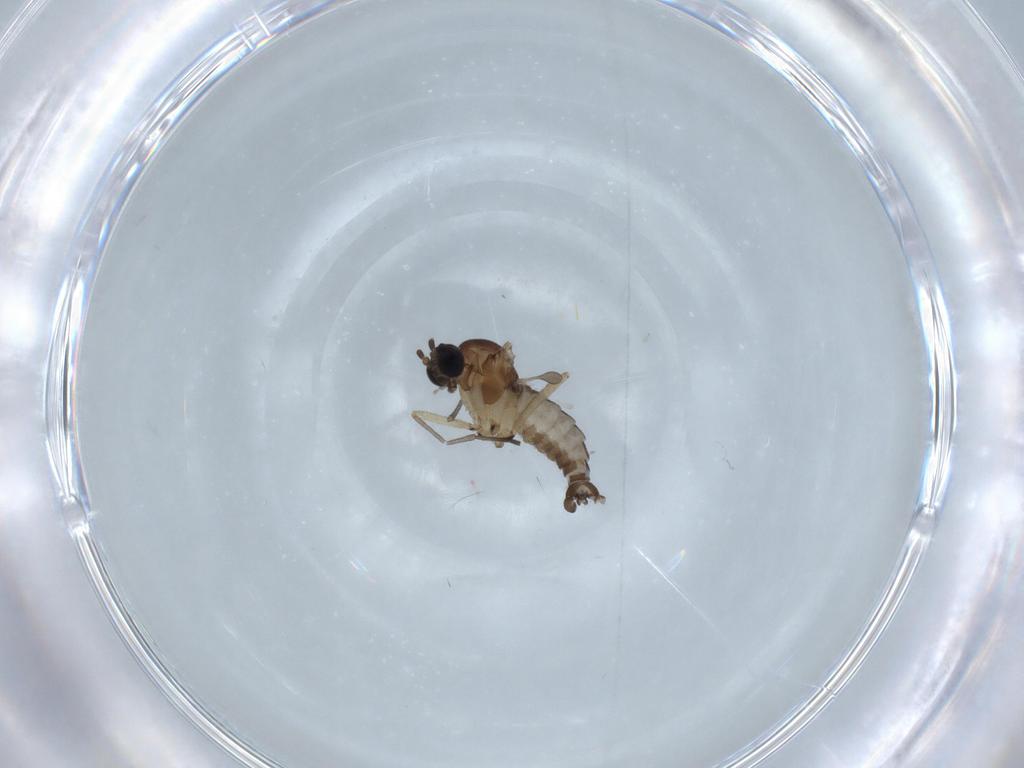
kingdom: Animalia
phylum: Arthropoda
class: Insecta
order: Diptera
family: Sciaridae
